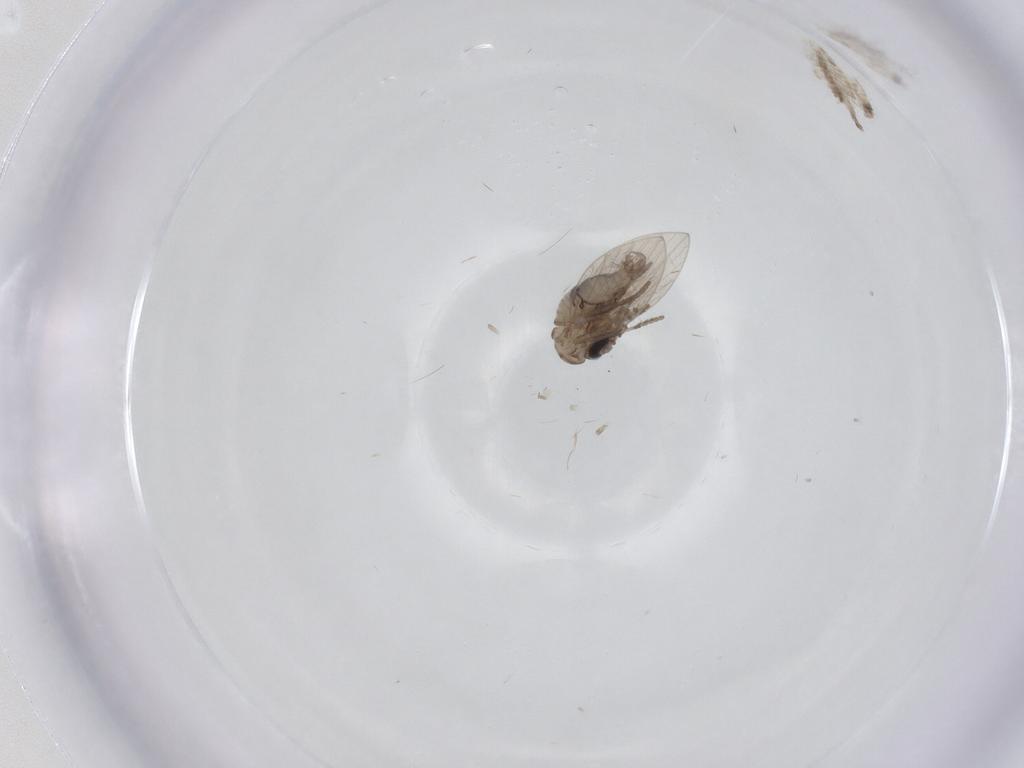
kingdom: Animalia
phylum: Arthropoda
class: Insecta
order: Diptera
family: Psychodidae
